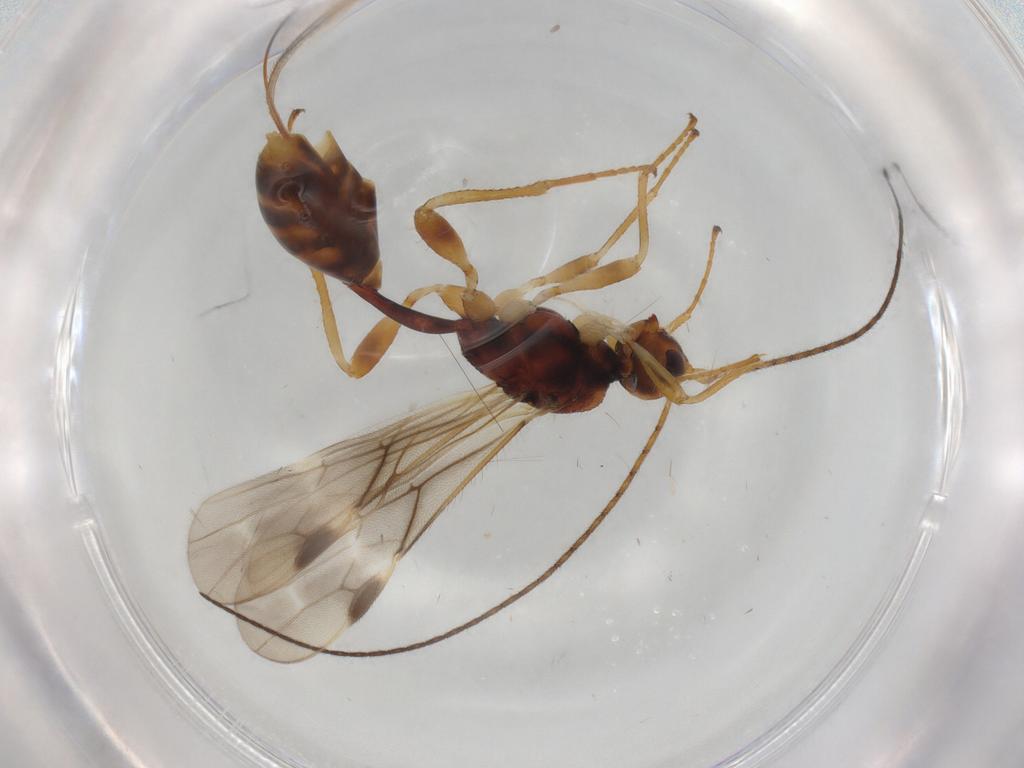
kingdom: Animalia
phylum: Arthropoda
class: Insecta
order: Hymenoptera
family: Braconidae
